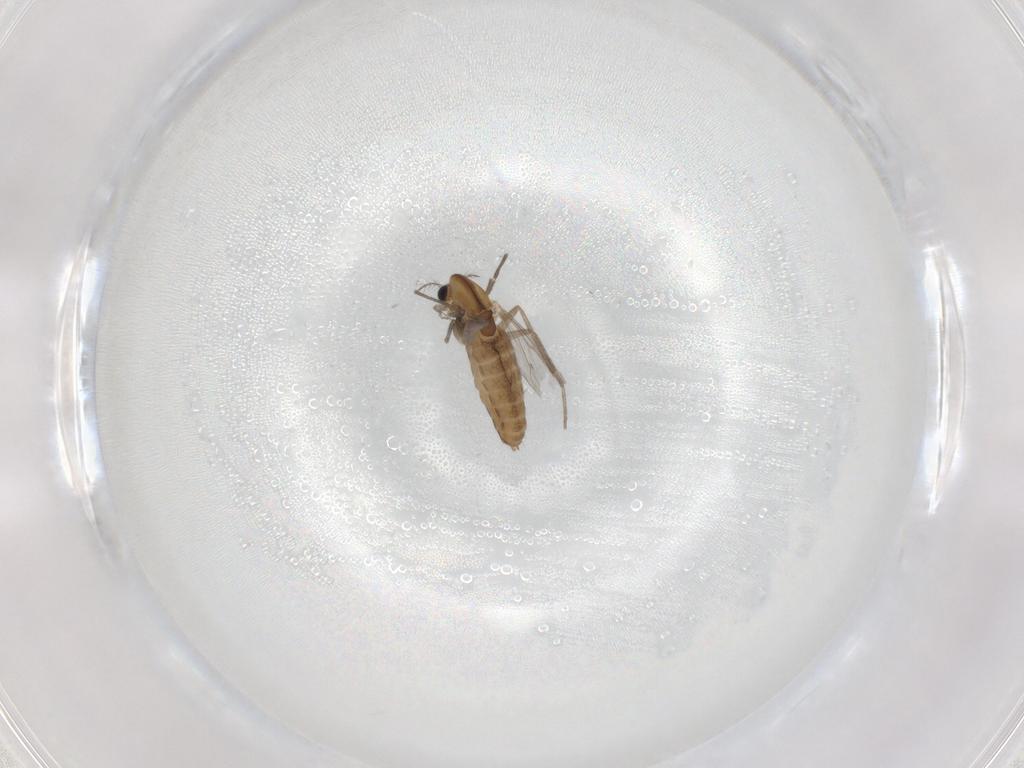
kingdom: Animalia
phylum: Arthropoda
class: Insecta
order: Diptera
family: Chironomidae
